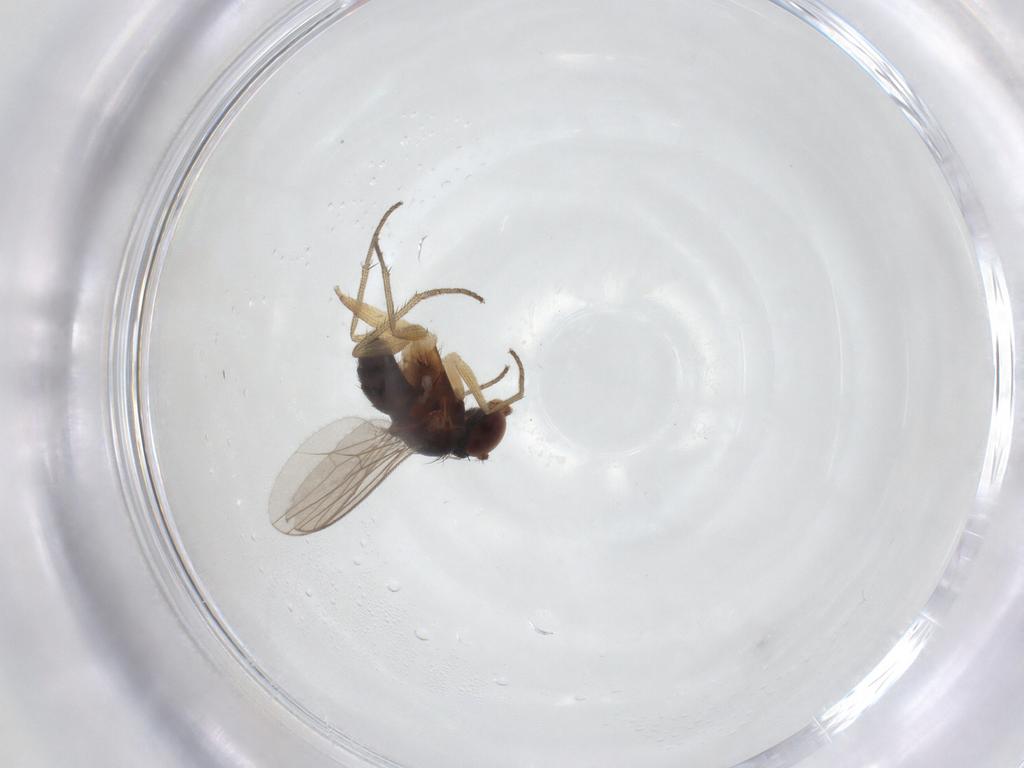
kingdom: Animalia
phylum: Arthropoda
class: Insecta
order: Diptera
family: Dolichopodidae
